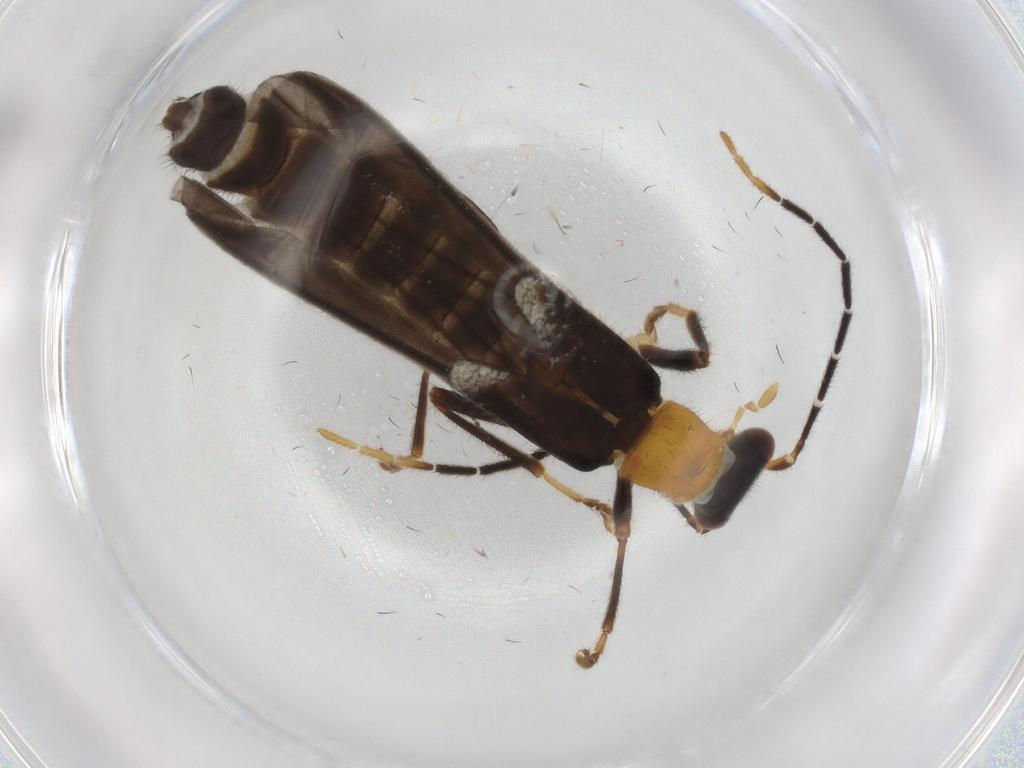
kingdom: Animalia
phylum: Arthropoda
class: Insecta
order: Coleoptera
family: Cantharidae
